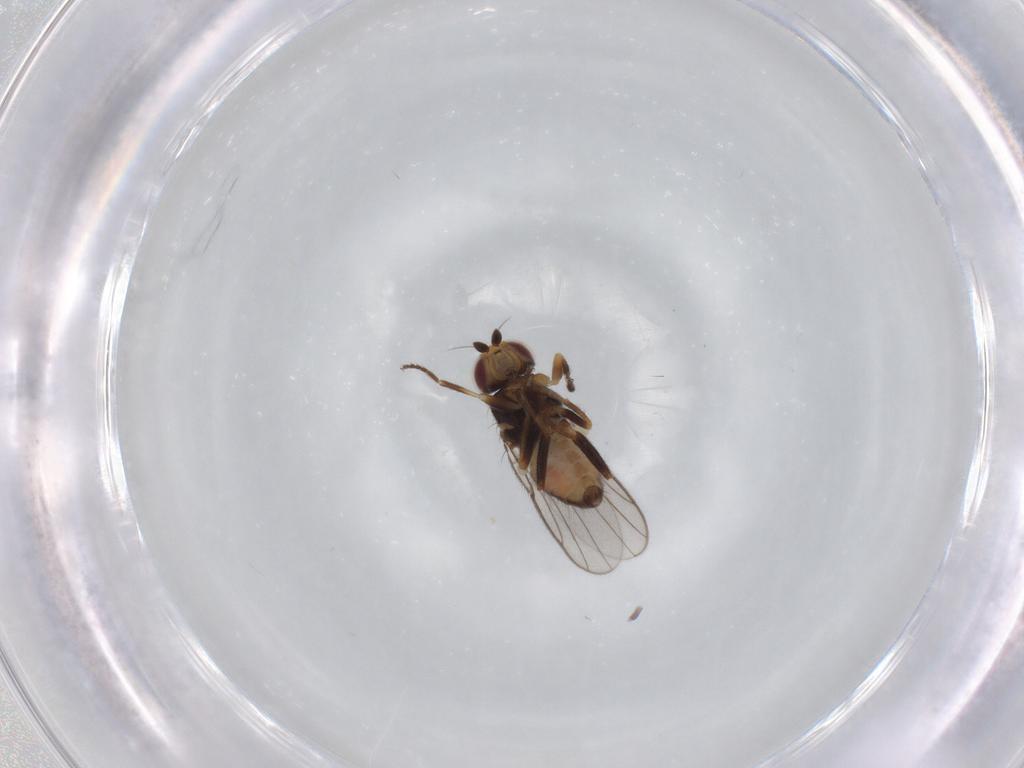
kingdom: Animalia
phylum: Arthropoda
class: Insecta
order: Diptera
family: Chloropidae
